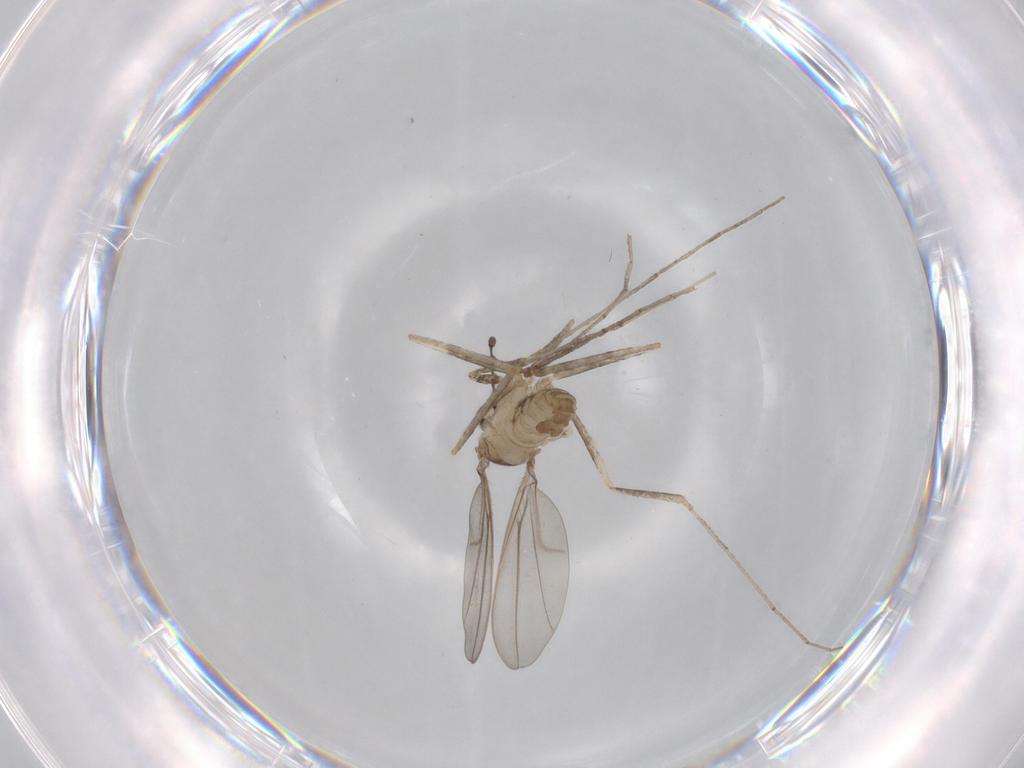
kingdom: Animalia
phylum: Arthropoda
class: Insecta
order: Diptera
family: Cecidomyiidae
